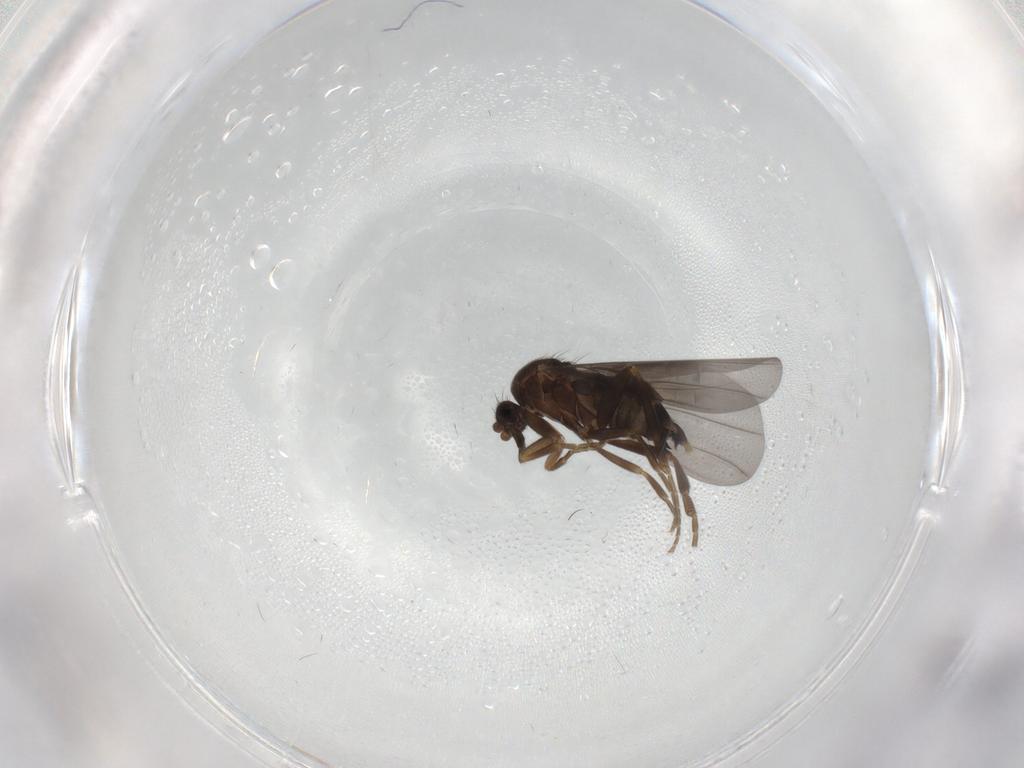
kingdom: Animalia
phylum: Arthropoda
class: Insecta
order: Diptera
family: Phoridae
